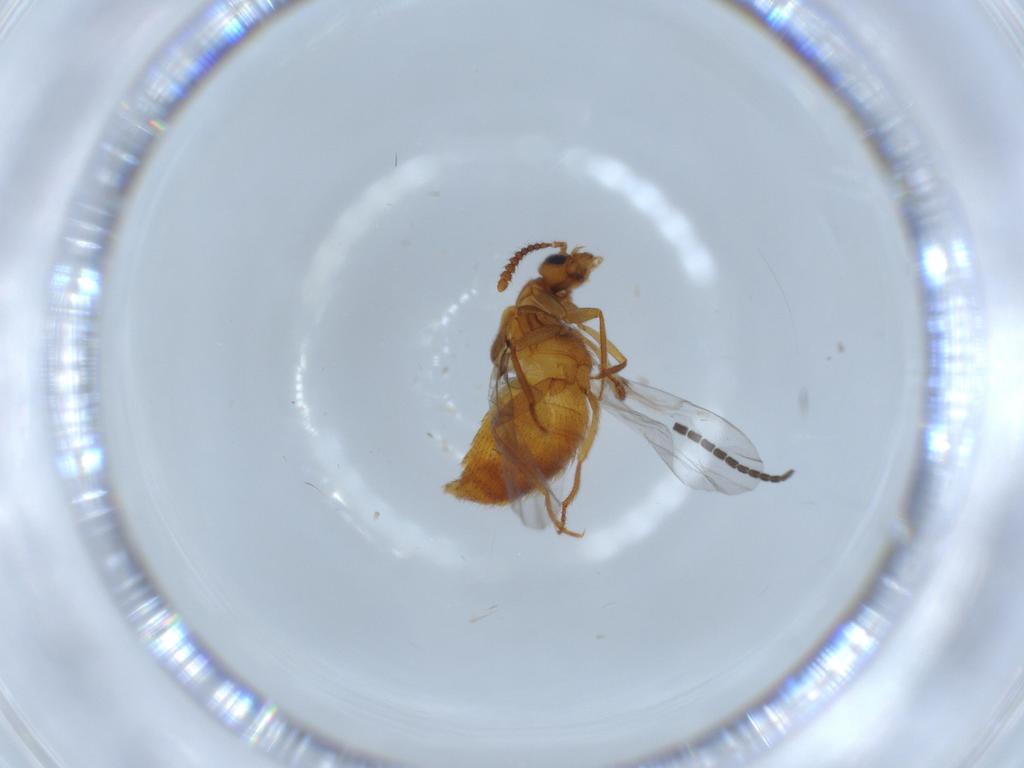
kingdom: Animalia
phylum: Arthropoda
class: Insecta
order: Coleoptera
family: Staphylinidae
